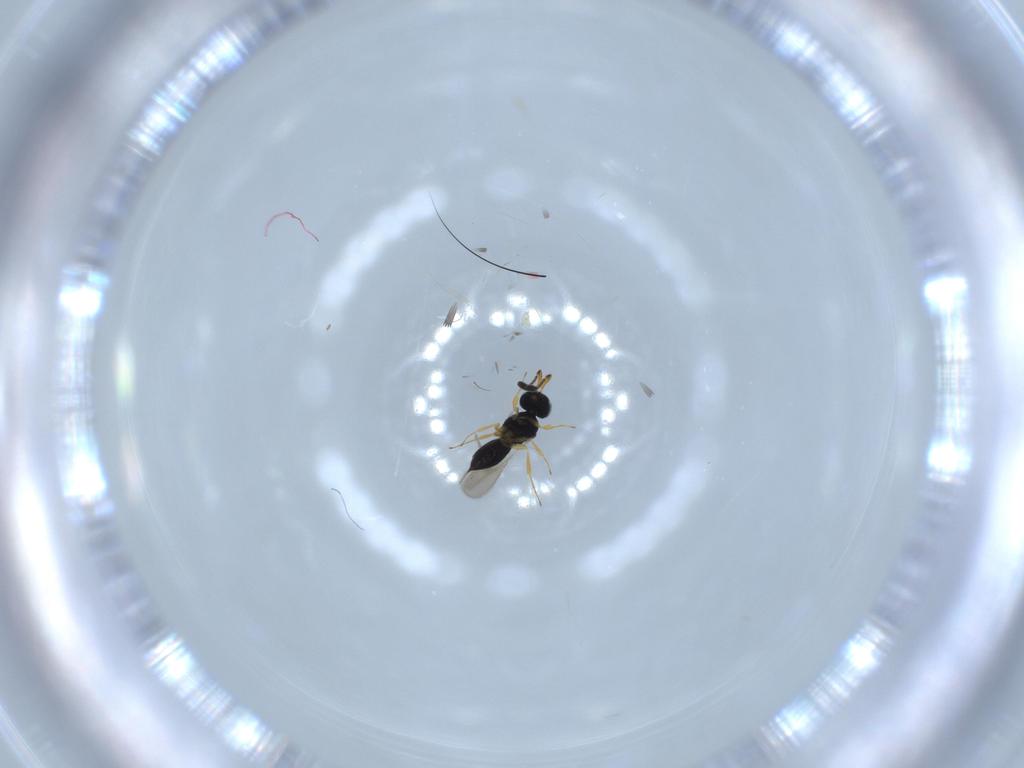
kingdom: Animalia
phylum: Arthropoda
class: Insecta
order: Hymenoptera
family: Scelionidae
